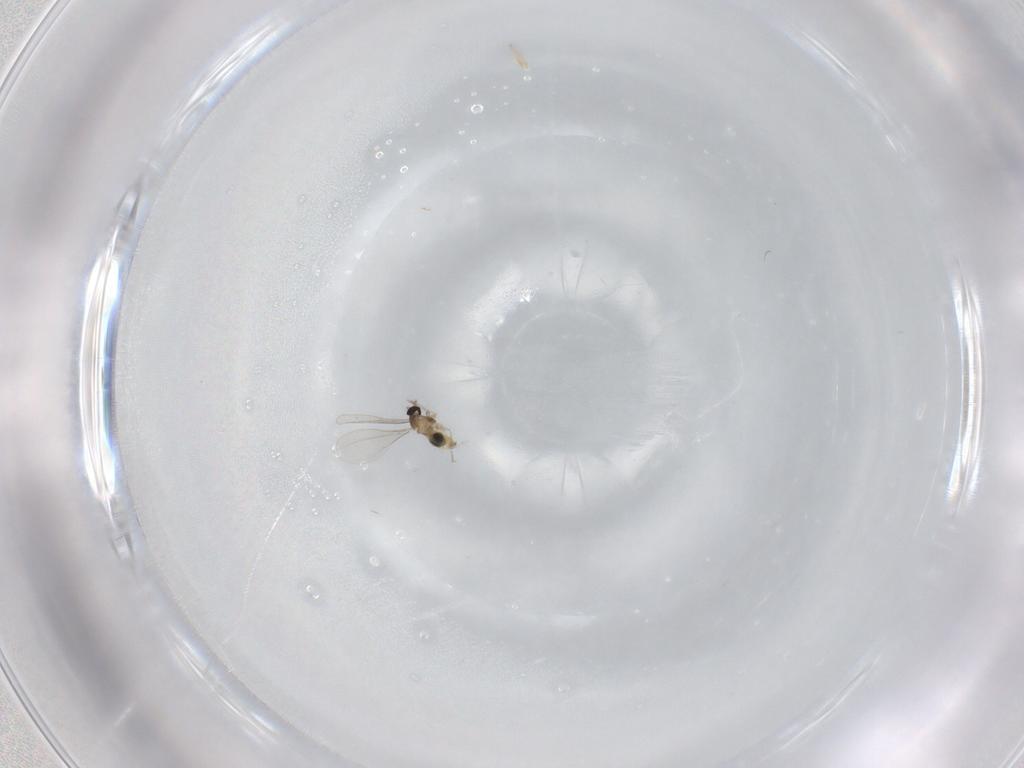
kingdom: Animalia
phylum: Arthropoda
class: Insecta
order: Diptera
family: Cecidomyiidae
